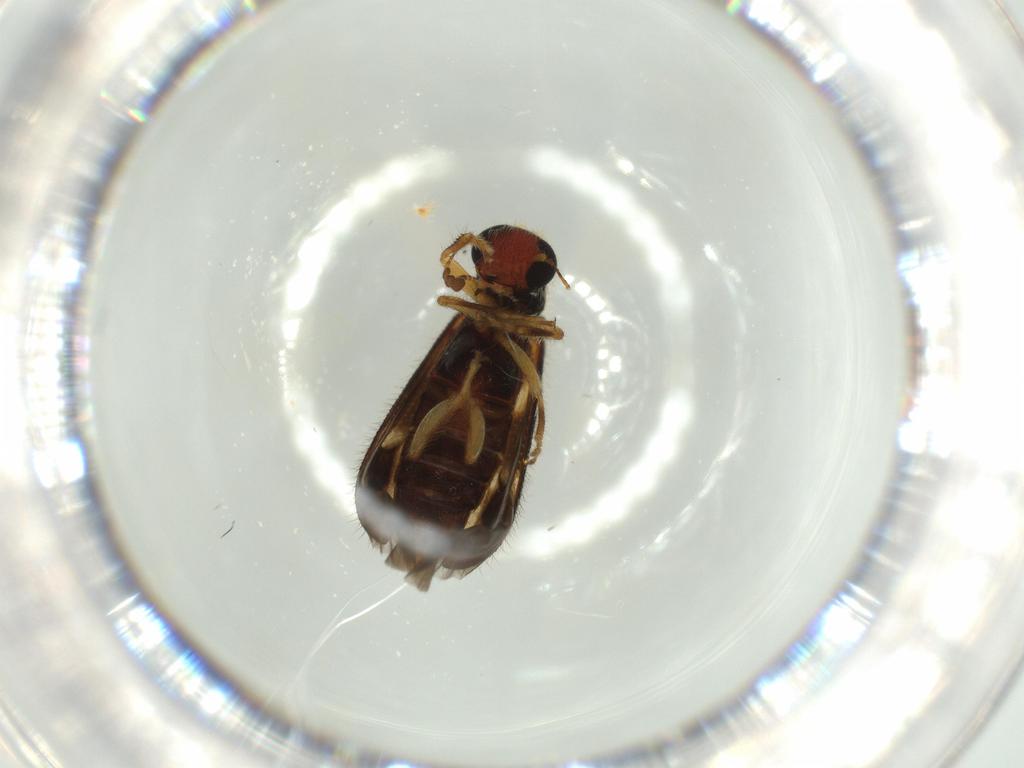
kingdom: Animalia
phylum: Arthropoda
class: Insecta
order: Coleoptera
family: Cleridae
